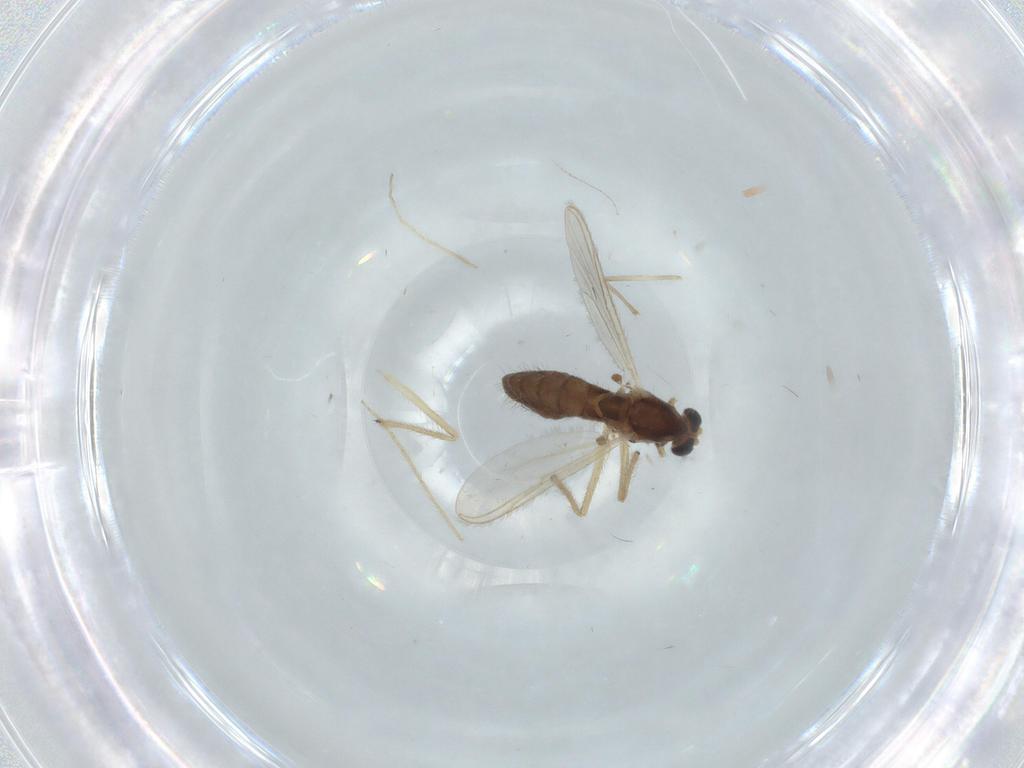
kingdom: Animalia
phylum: Arthropoda
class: Insecta
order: Diptera
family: Chironomidae
